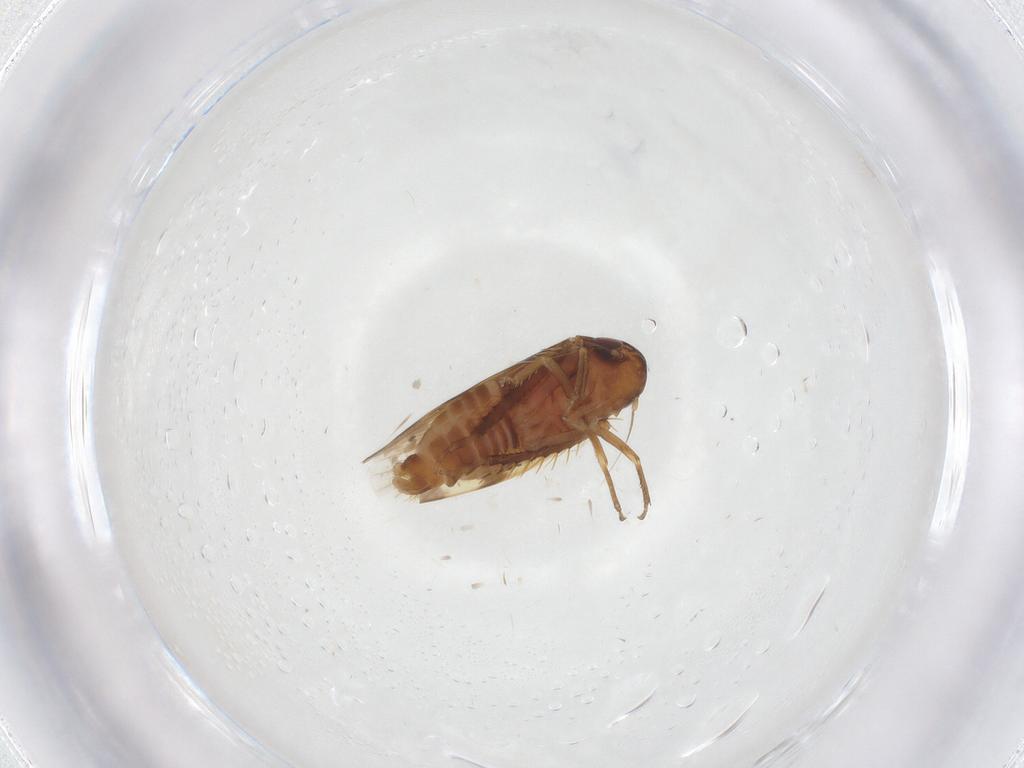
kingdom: Animalia
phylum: Arthropoda
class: Insecta
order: Hemiptera
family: Cicadellidae
